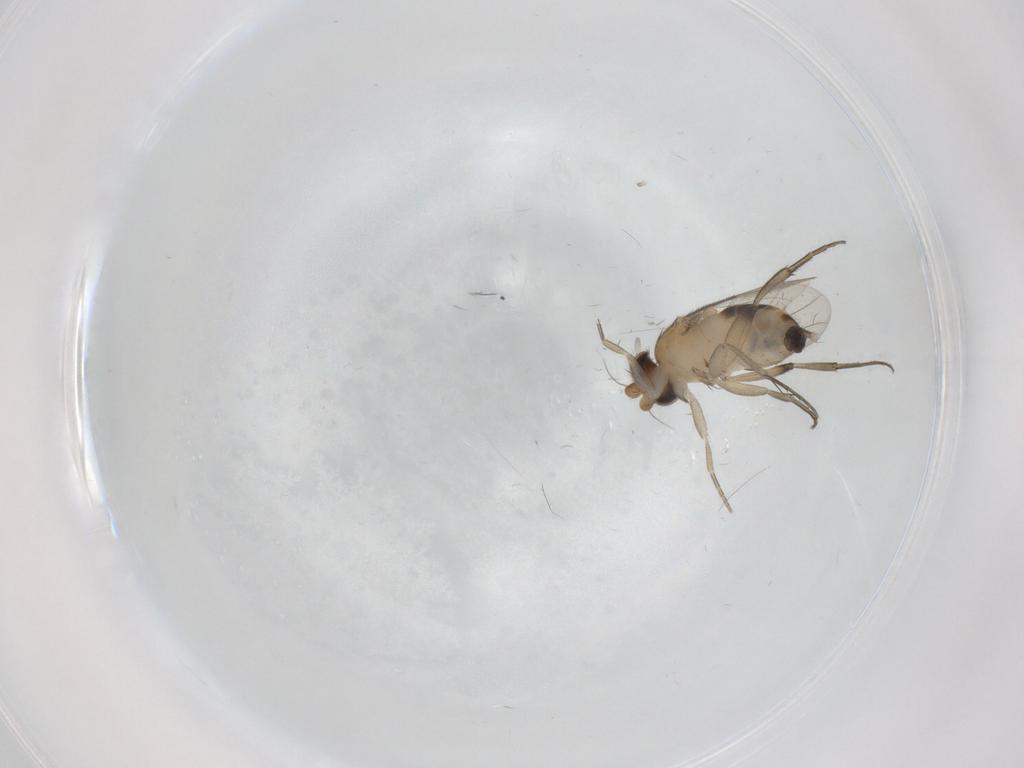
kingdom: Animalia
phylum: Arthropoda
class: Insecta
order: Diptera
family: Phoridae
